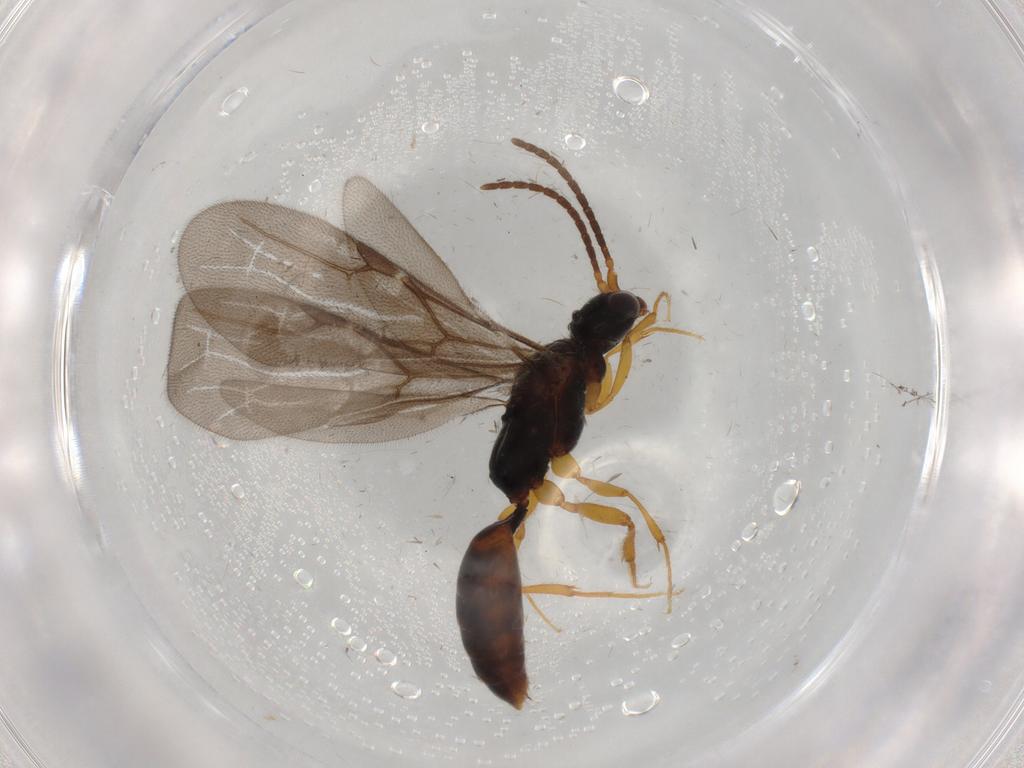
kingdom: Animalia
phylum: Arthropoda
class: Insecta
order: Hymenoptera
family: Bethylidae
